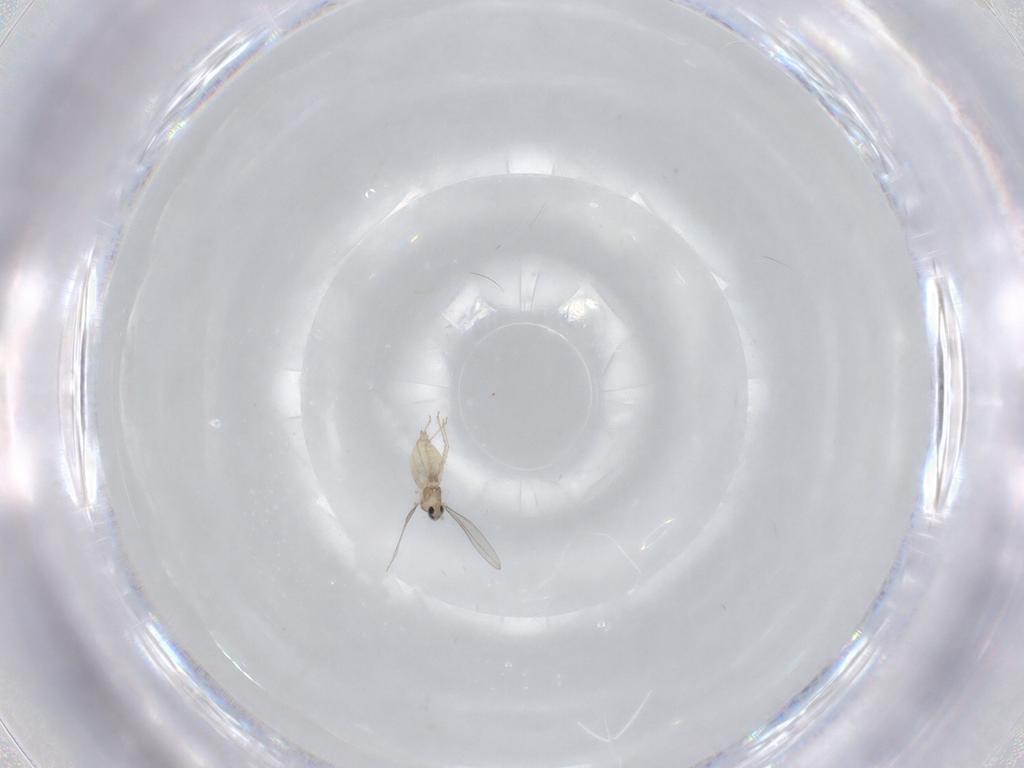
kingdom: Animalia
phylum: Arthropoda
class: Insecta
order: Diptera
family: Cecidomyiidae
